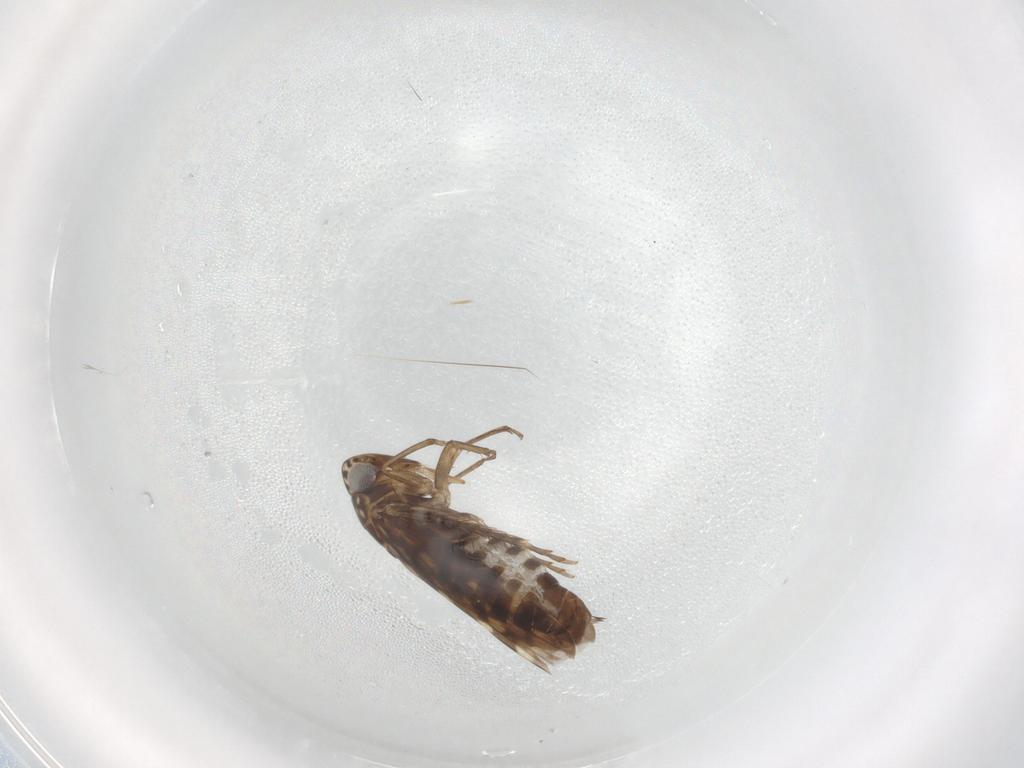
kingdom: Animalia
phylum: Arthropoda
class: Insecta
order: Hemiptera
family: Cicadellidae
